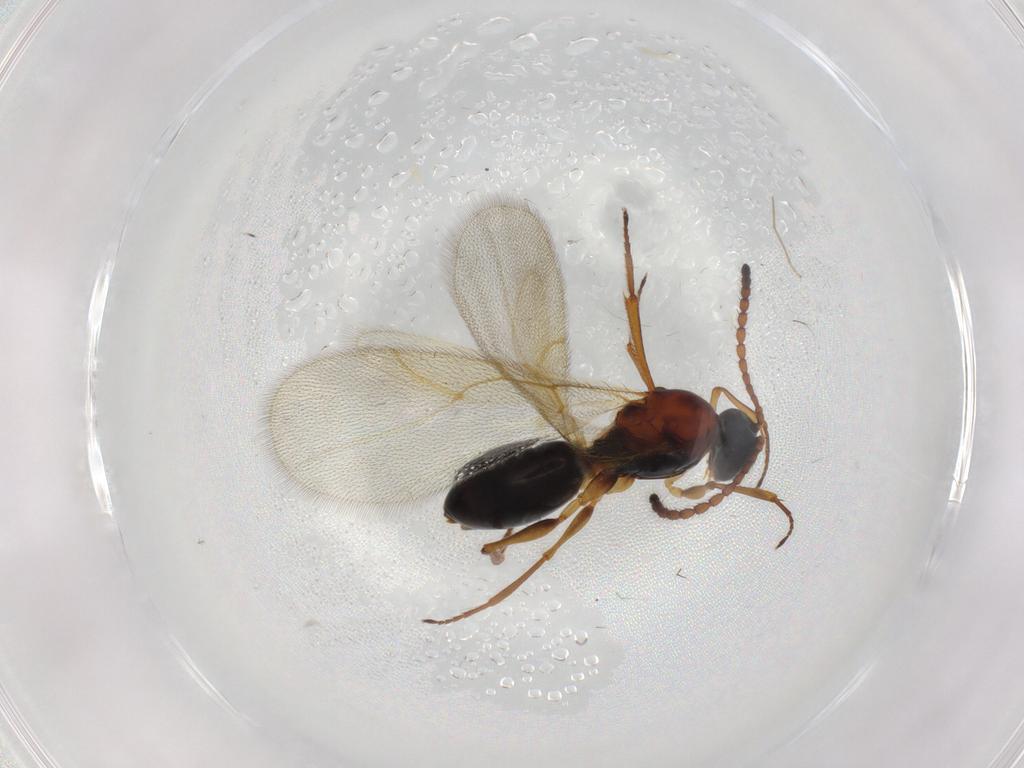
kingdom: Animalia
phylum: Arthropoda
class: Insecta
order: Hymenoptera
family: Figitidae
